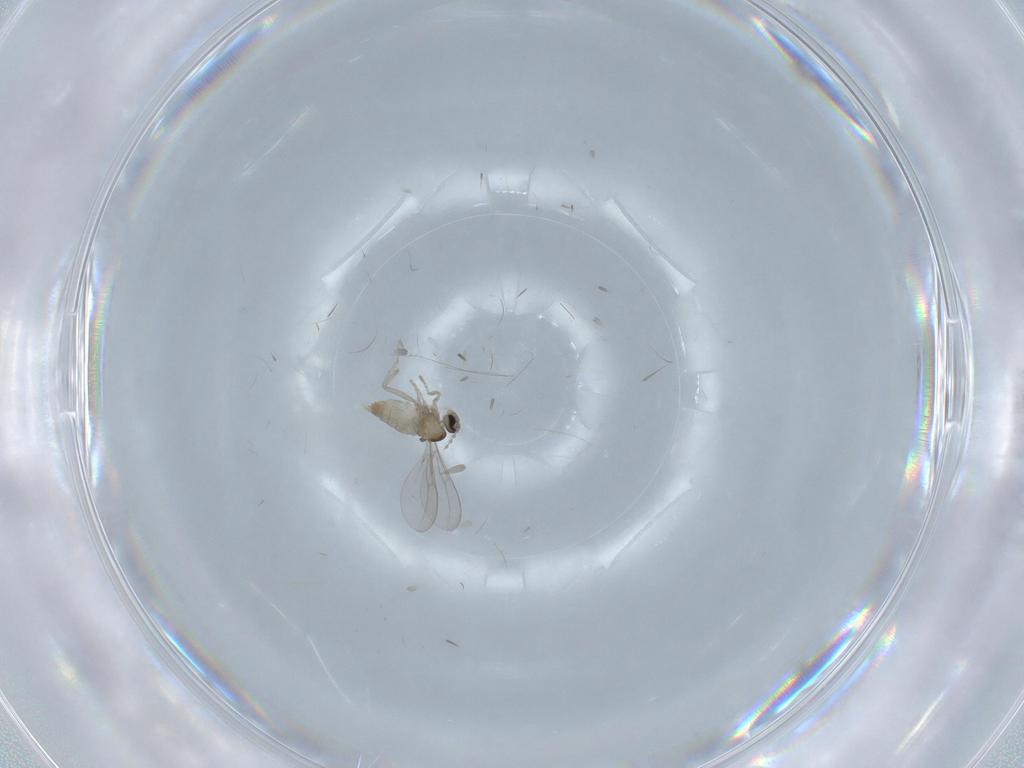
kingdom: Animalia
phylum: Arthropoda
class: Insecta
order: Diptera
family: Cecidomyiidae
